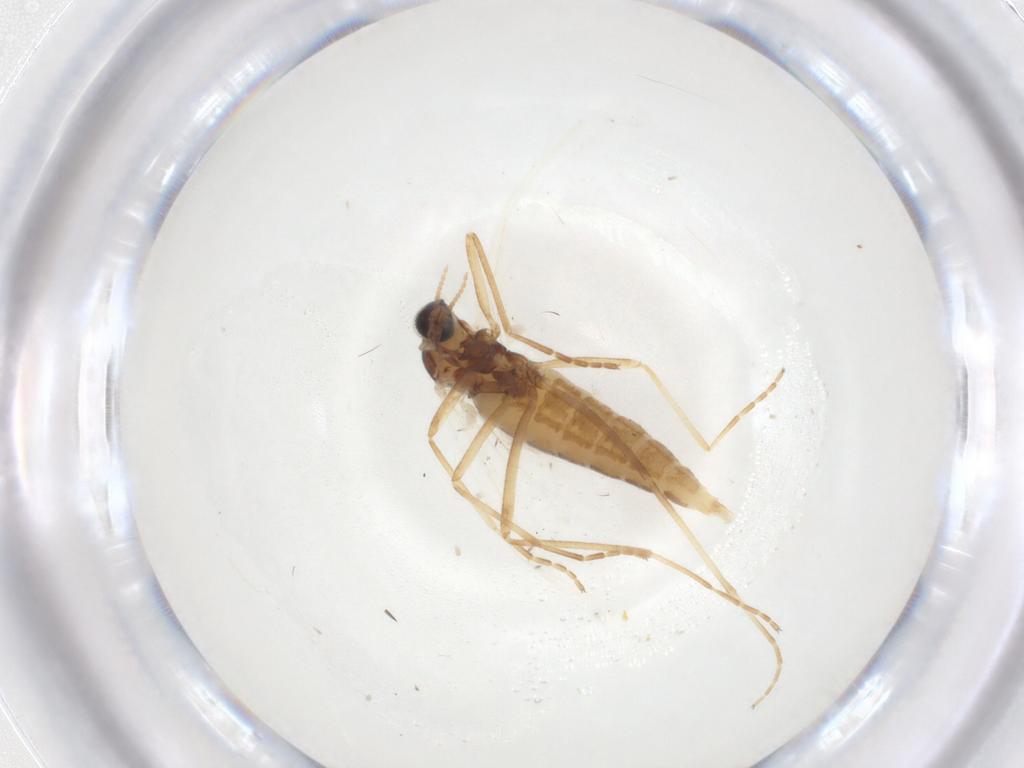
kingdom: Animalia
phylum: Arthropoda
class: Insecta
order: Diptera
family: Cecidomyiidae
